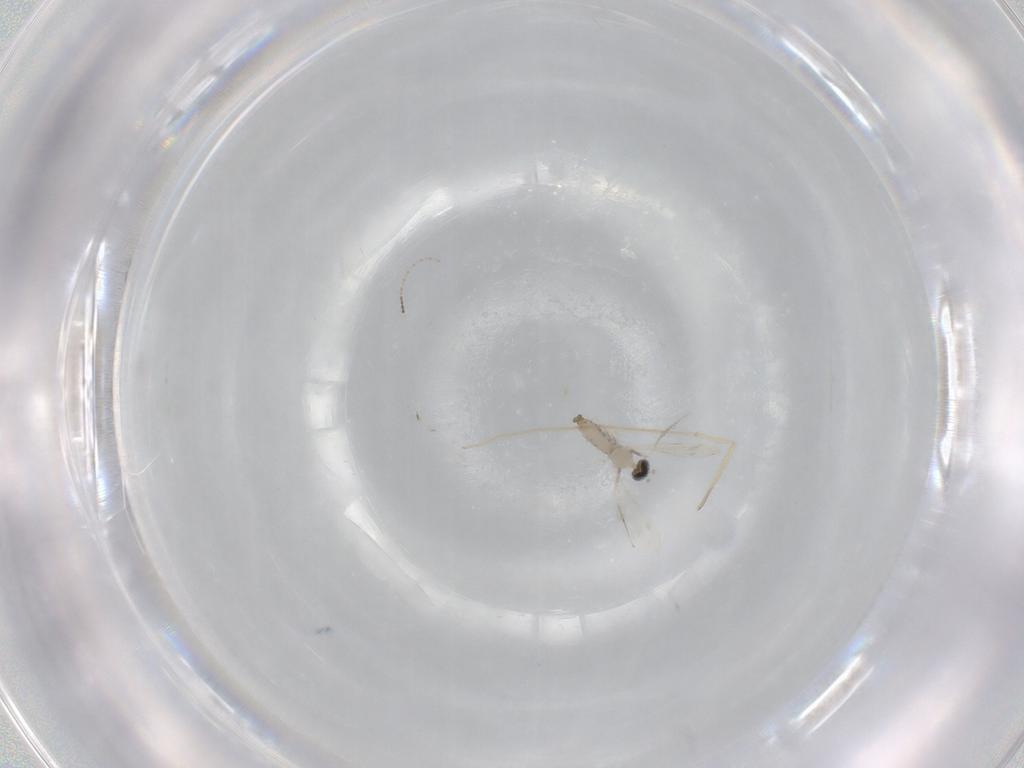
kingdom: Animalia
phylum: Arthropoda
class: Insecta
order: Diptera
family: Cecidomyiidae
